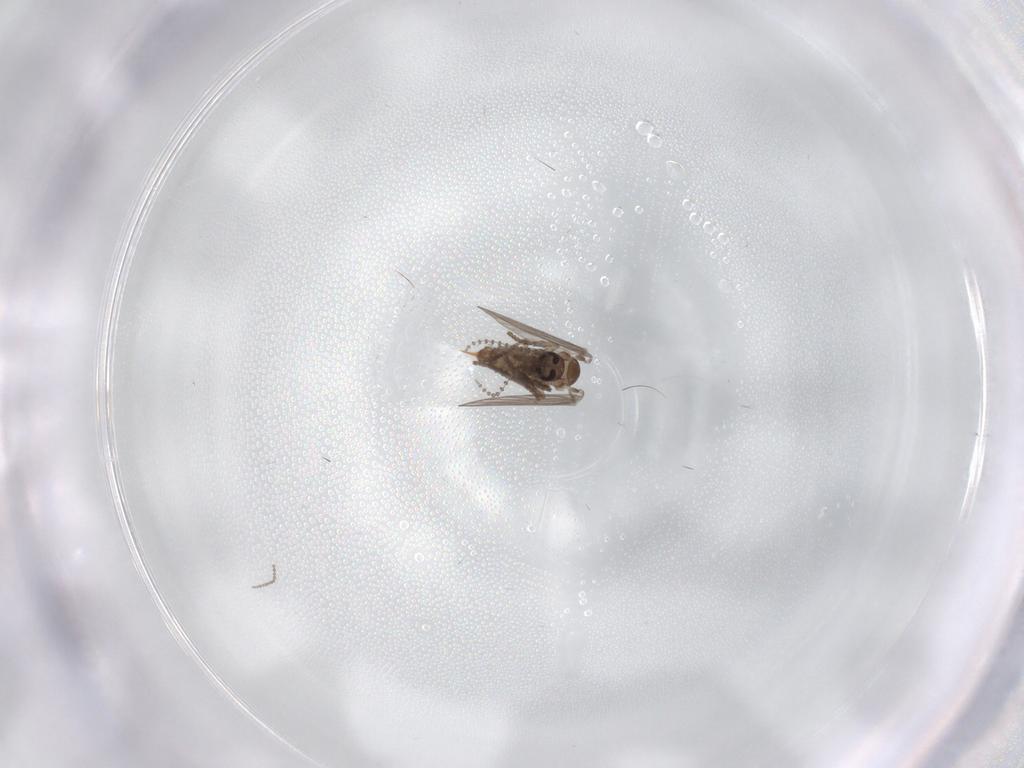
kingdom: Animalia
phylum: Arthropoda
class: Insecta
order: Diptera
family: Psychodidae
